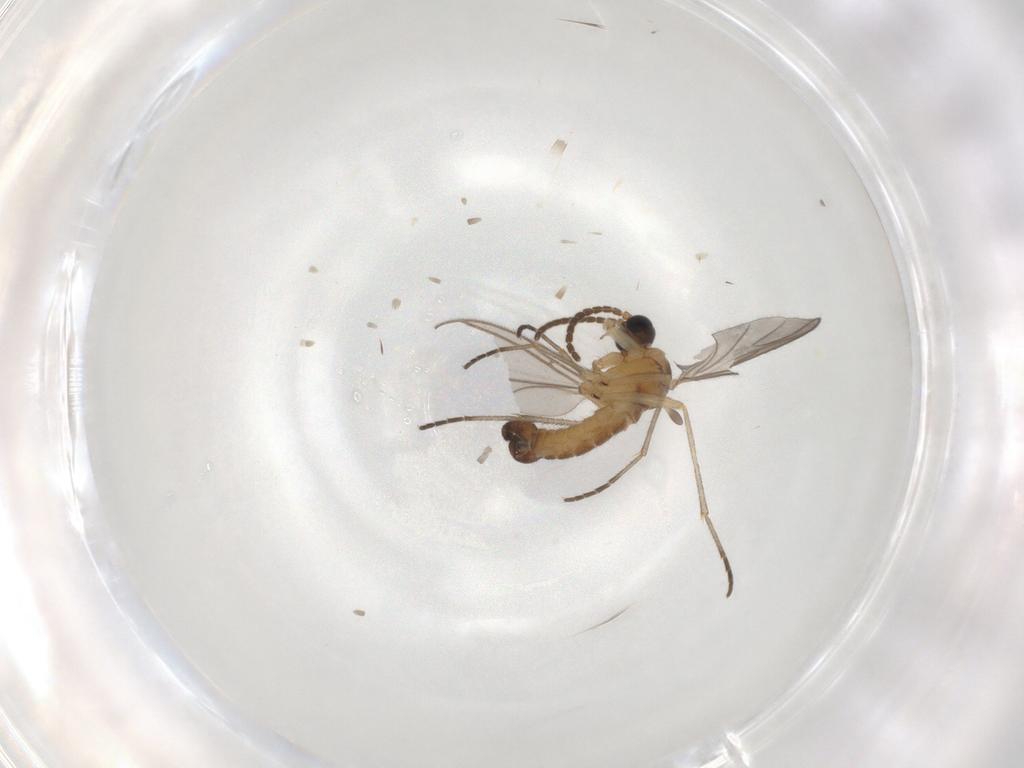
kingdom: Animalia
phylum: Arthropoda
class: Insecta
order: Diptera
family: Sciaridae
